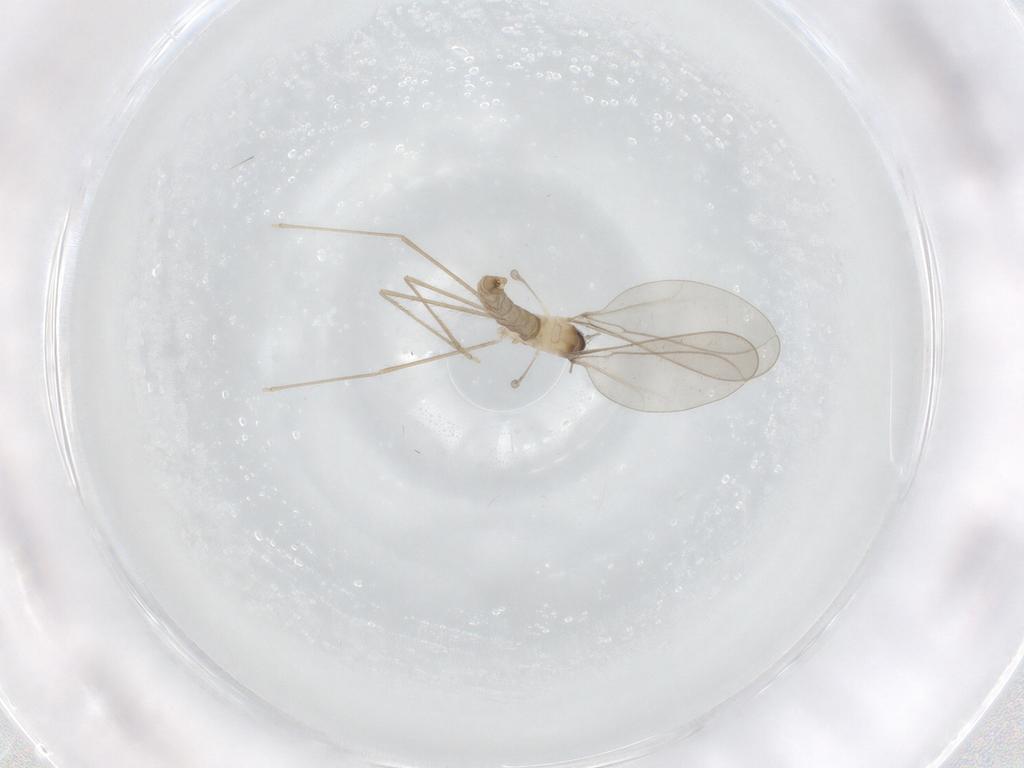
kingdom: Animalia
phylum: Arthropoda
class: Insecta
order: Diptera
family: Cecidomyiidae
